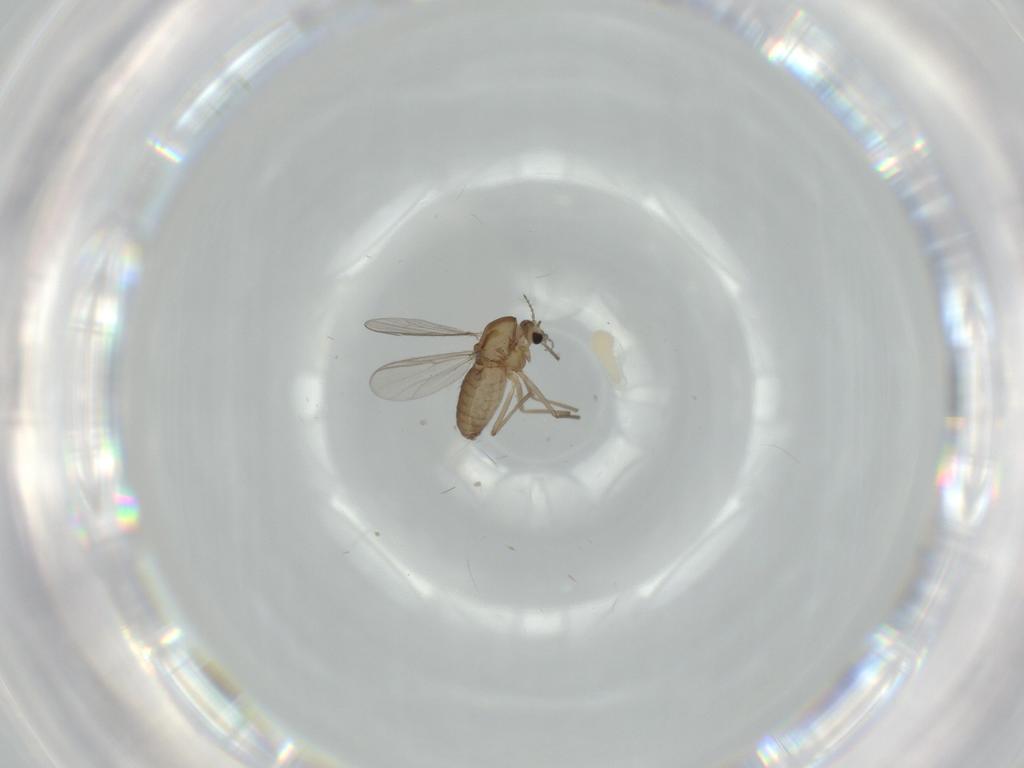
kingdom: Animalia
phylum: Arthropoda
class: Insecta
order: Diptera
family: Chironomidae
